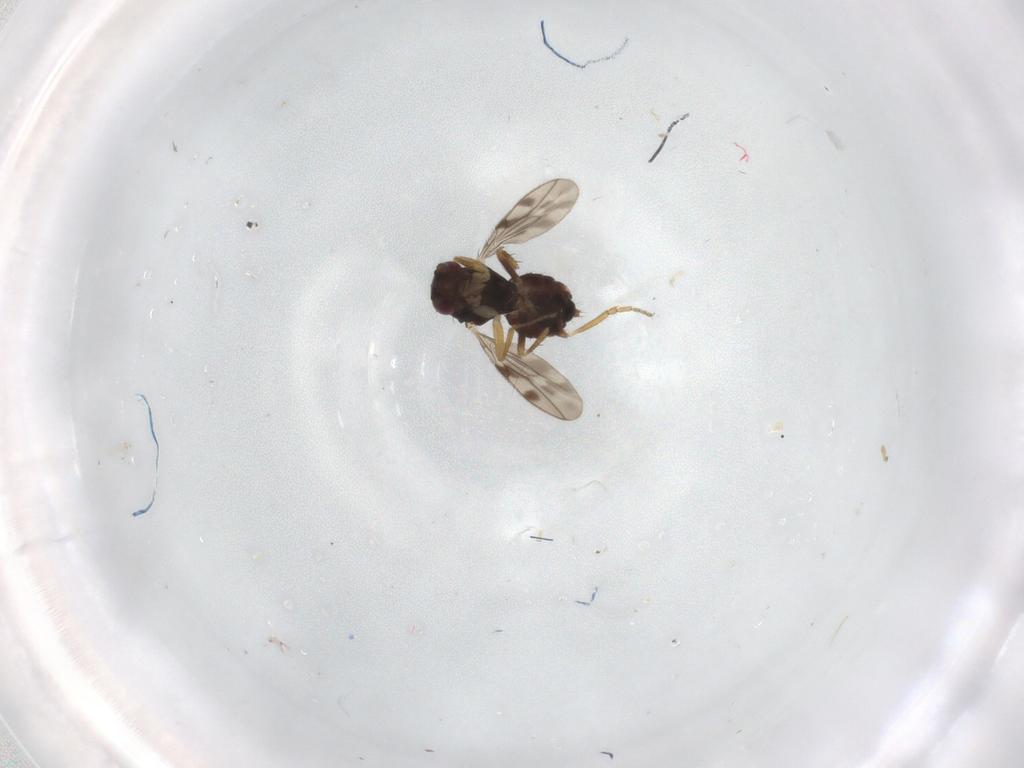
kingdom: Animalia
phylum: Arthropoda
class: Insecta
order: Diptera
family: Sphaeroceridae
